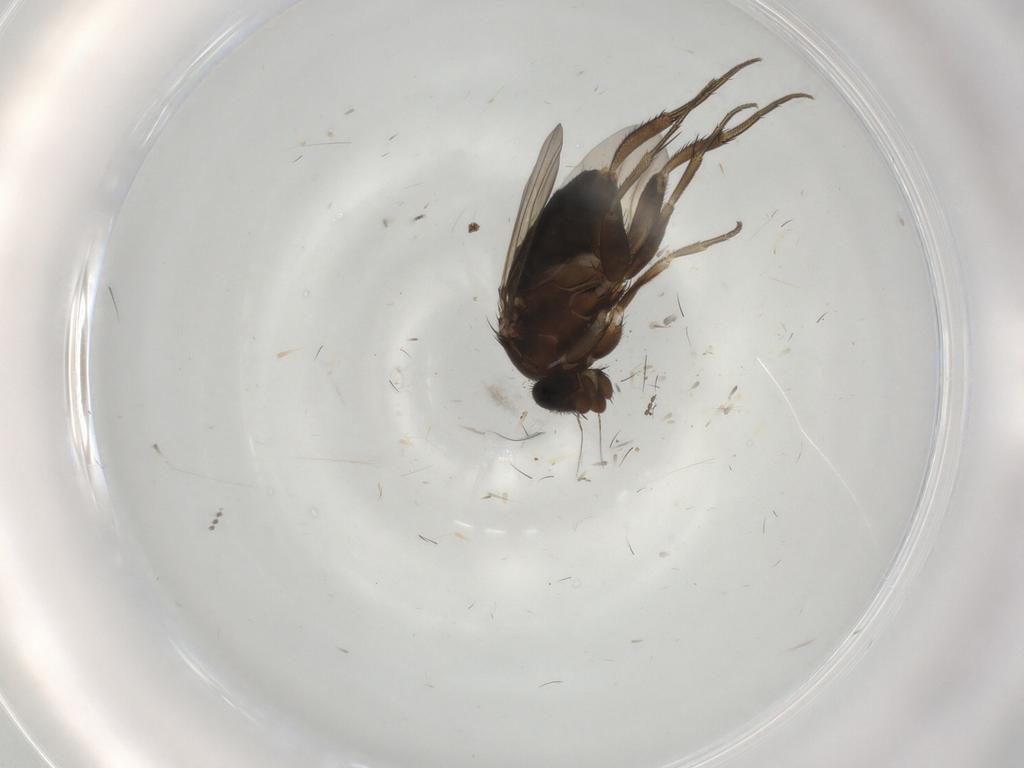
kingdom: Animalia
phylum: Arthropoda
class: Insecta
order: Diptera
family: Phoridae
